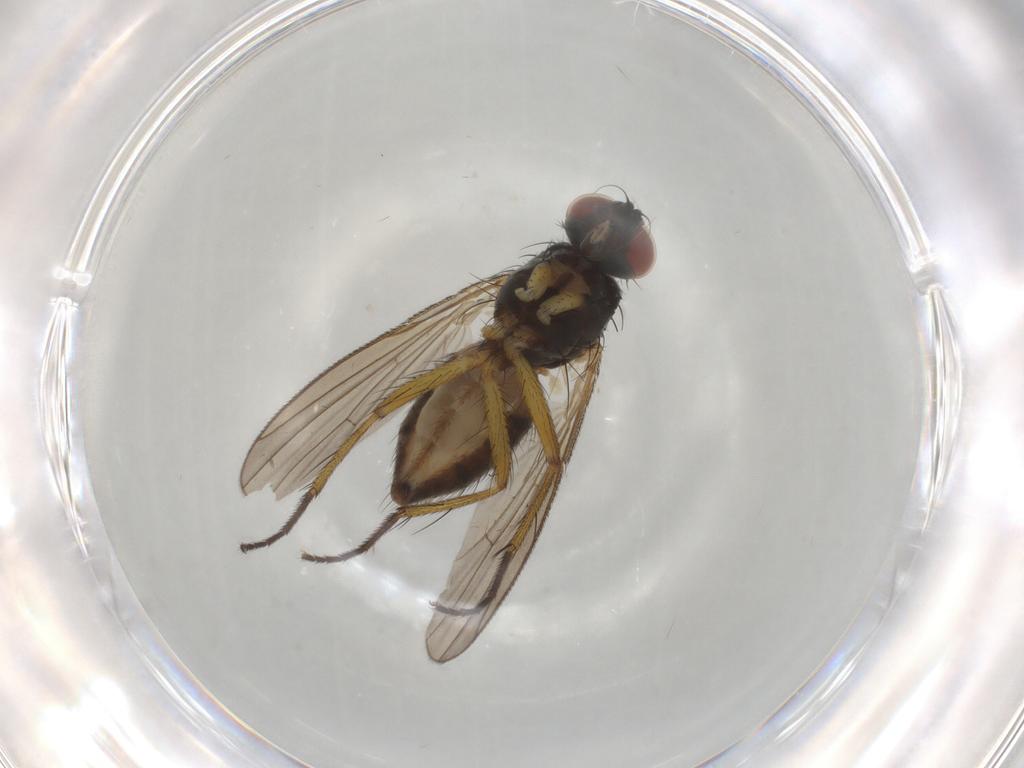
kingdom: Animalia
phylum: Arthropoda
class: Insecta
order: Diptera
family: Muscidae
